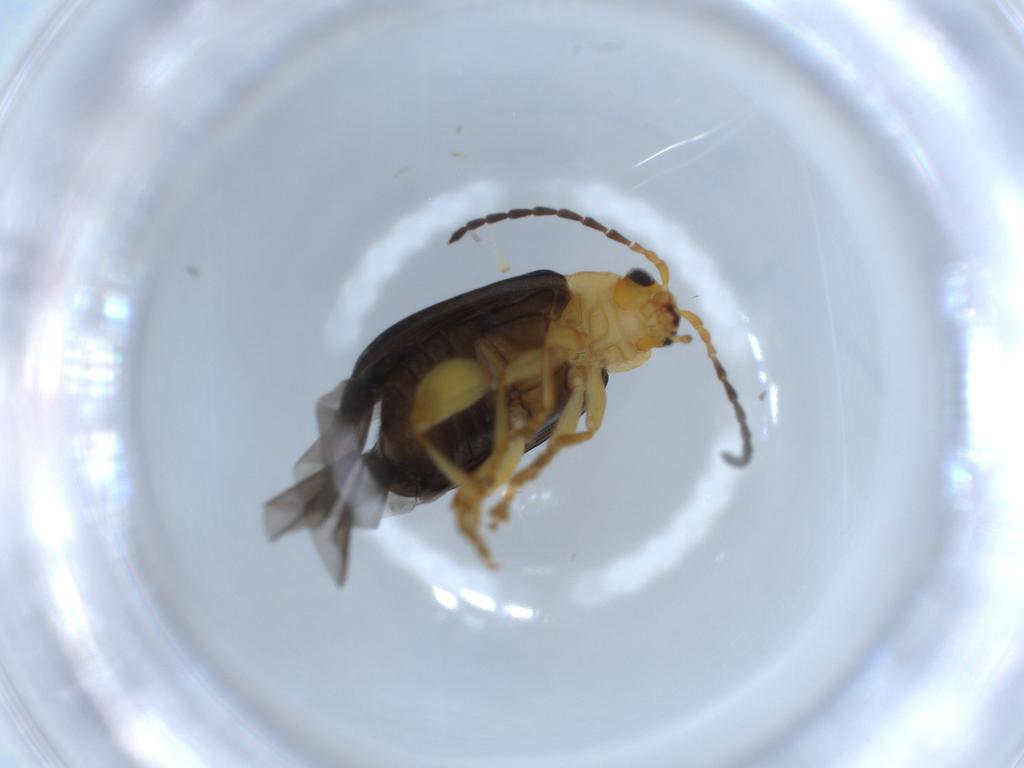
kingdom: Animalia
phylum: Arthropoda
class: Insecta
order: Coleoptera
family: Chrysomelidae
